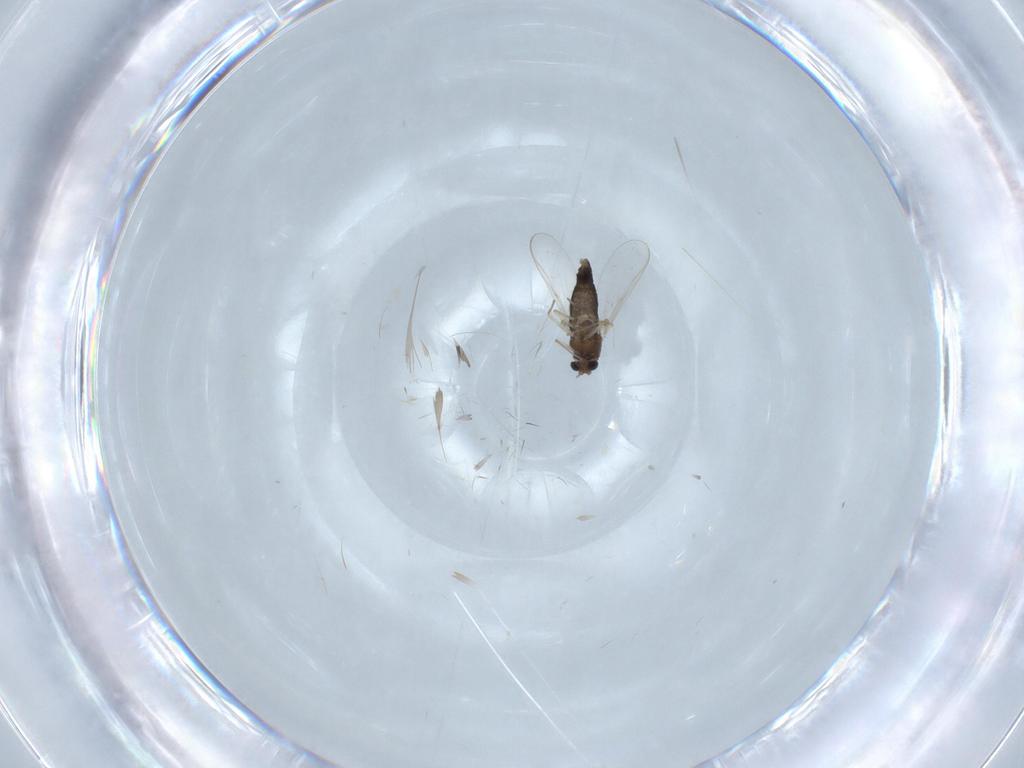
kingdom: Animalia
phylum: Arthropoda
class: Insecta
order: Diptera
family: Chironomidae
